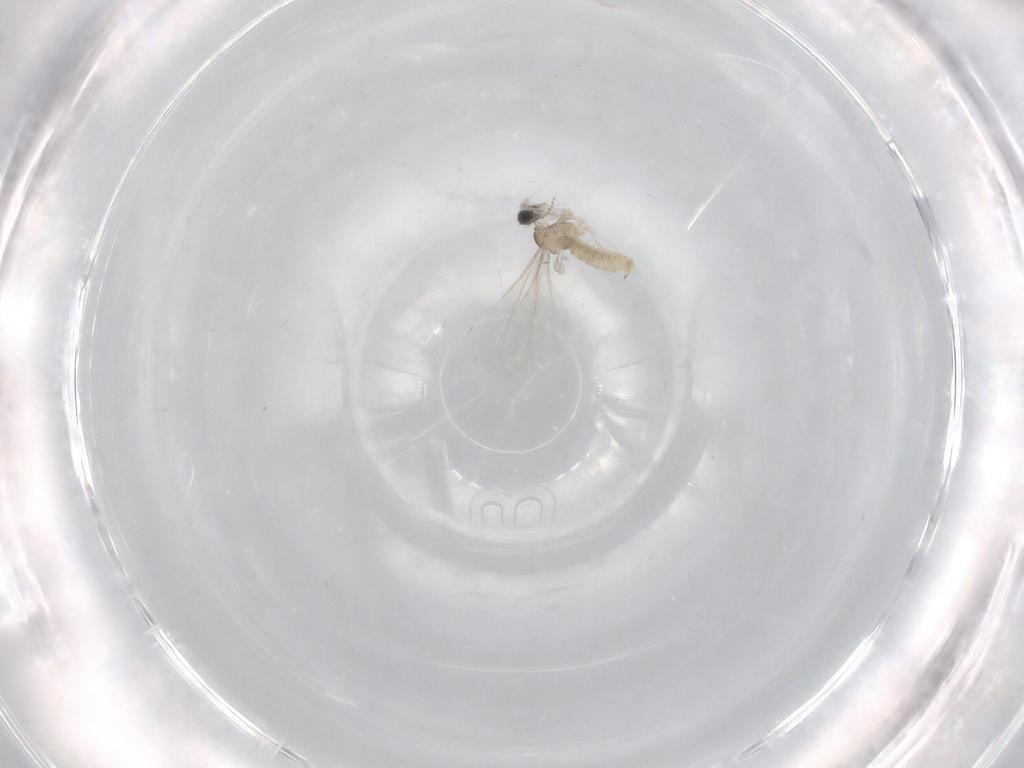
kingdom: Animalia
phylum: Arthropoda
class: Insecta
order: Diptera
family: Cecidomyiidae
